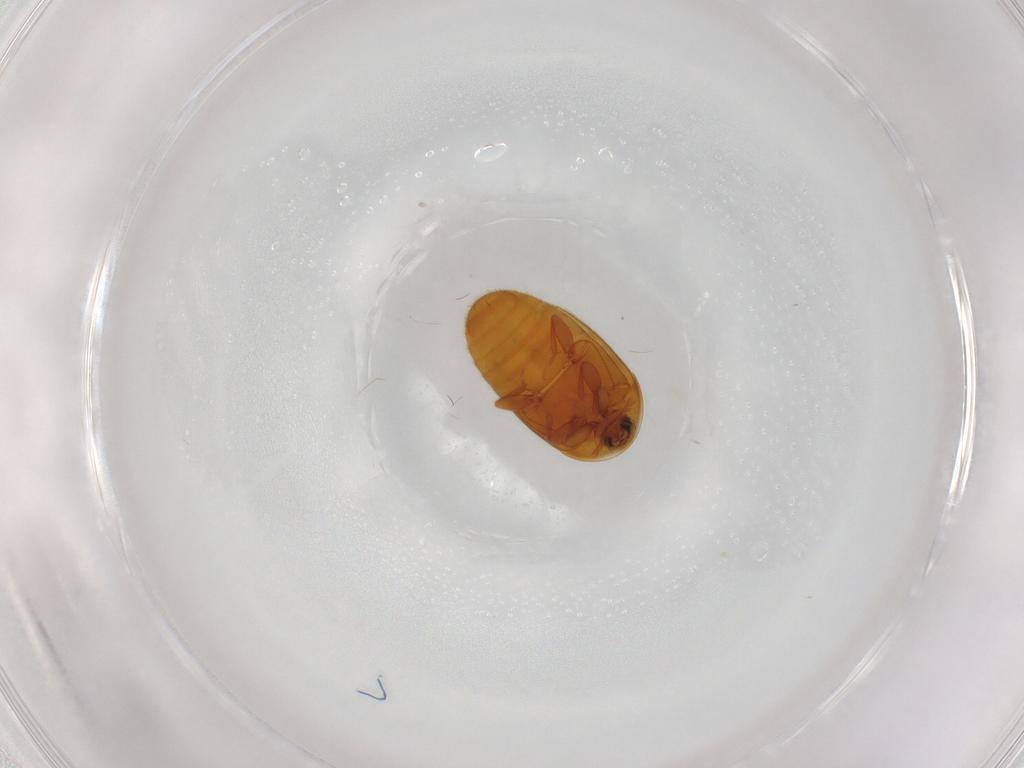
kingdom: Animalia
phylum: Arthropoda
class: Insecta
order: Coleoptera
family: Corylophidae
